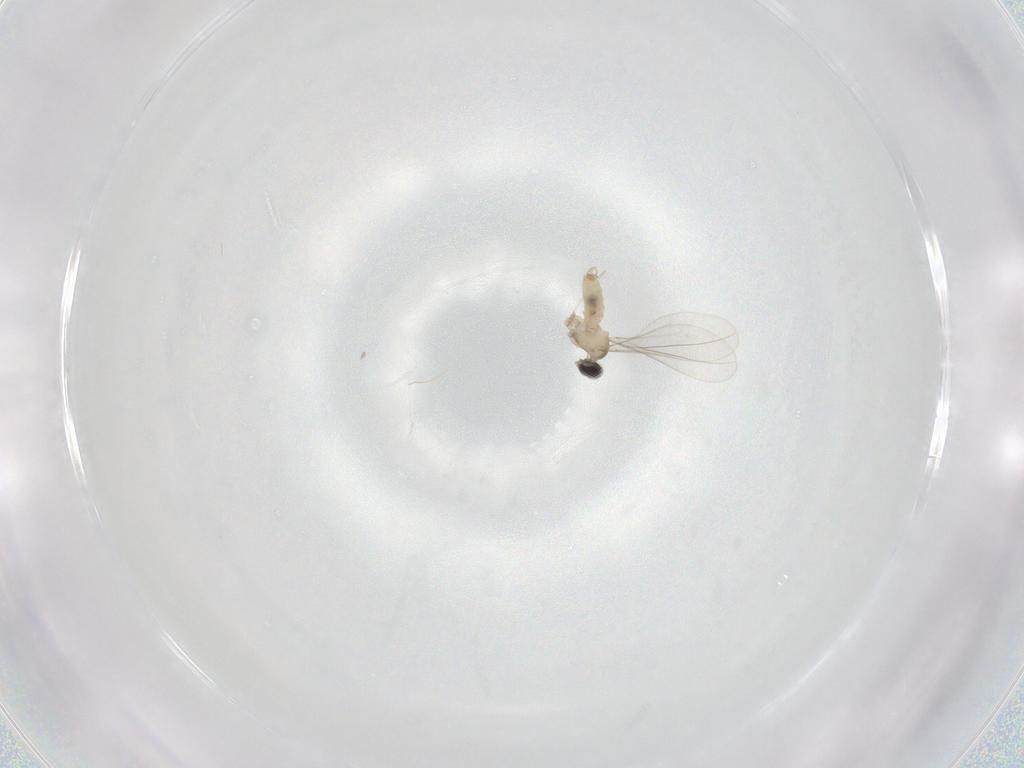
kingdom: Animalia
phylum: Arthropoda
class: Insecta
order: Diptera
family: Cecidomyiidae
